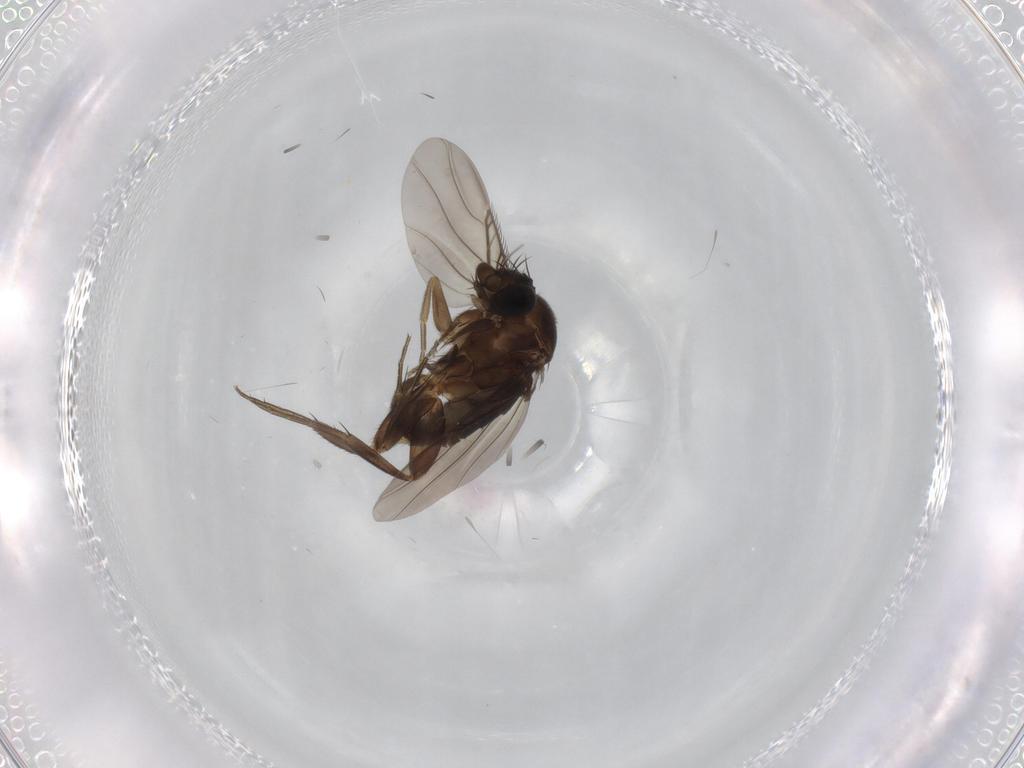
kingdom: Animalia
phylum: Arthropoda
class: Insecta
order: Diptera
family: Phoridae
